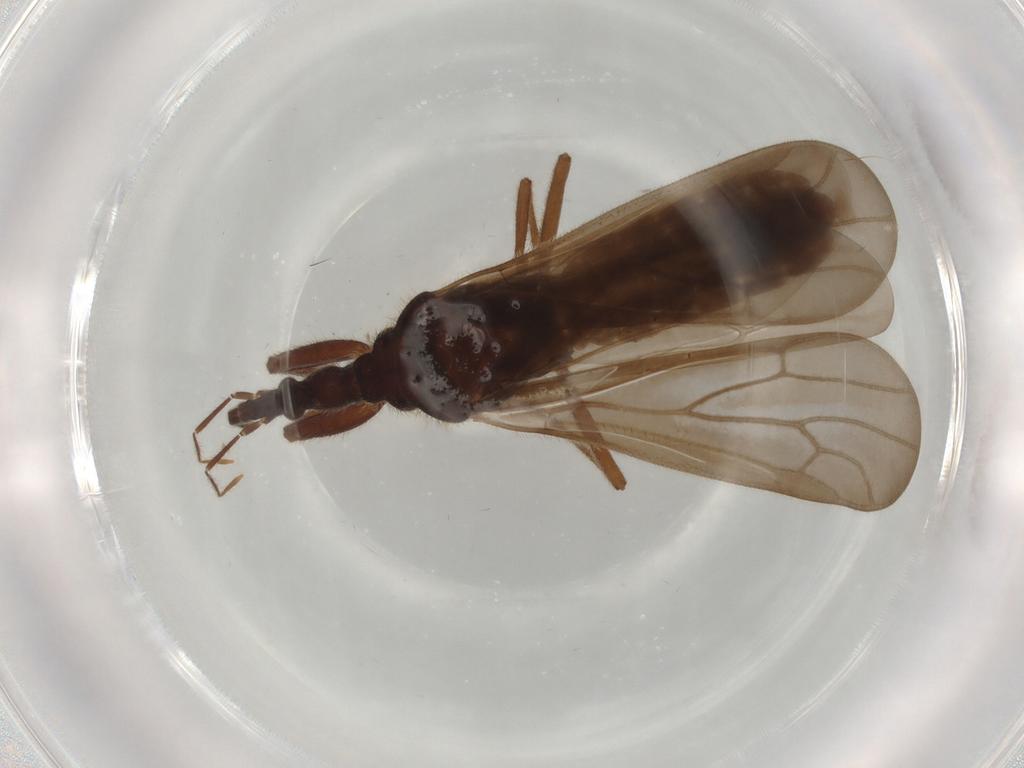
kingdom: Animalia
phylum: Arthropoda
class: Insecta
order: Hemiptera
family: Enicocephalidae
